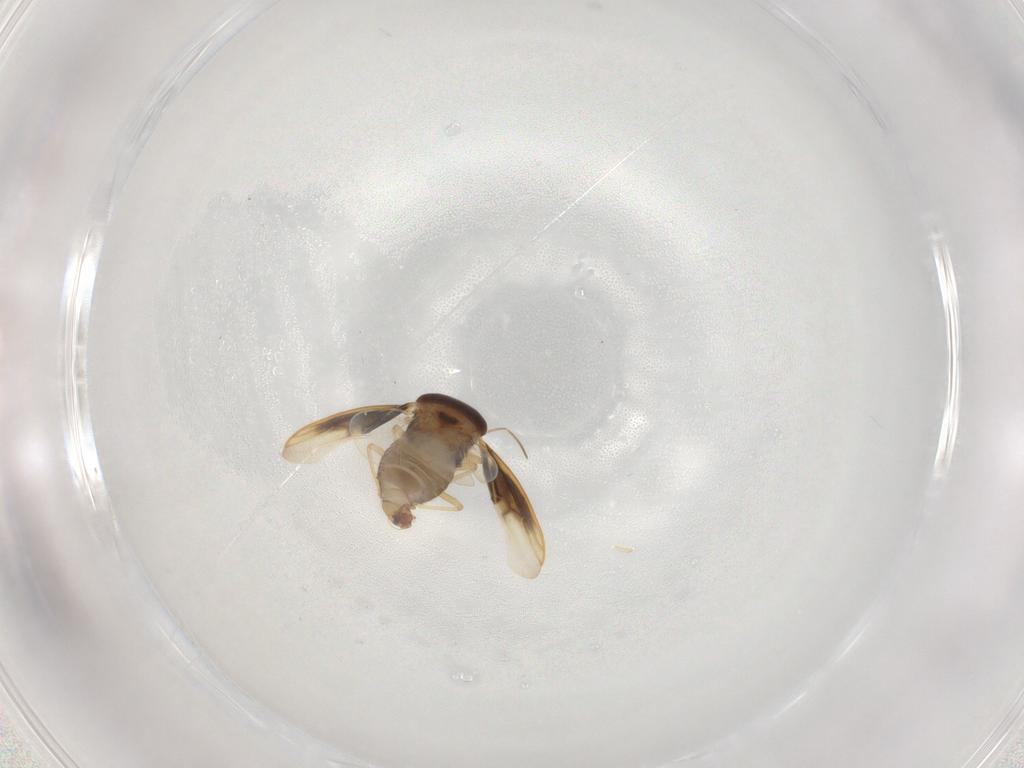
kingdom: Animalia
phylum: Arthropoda
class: Insecta
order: Hemiptera
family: Schizopteridae
